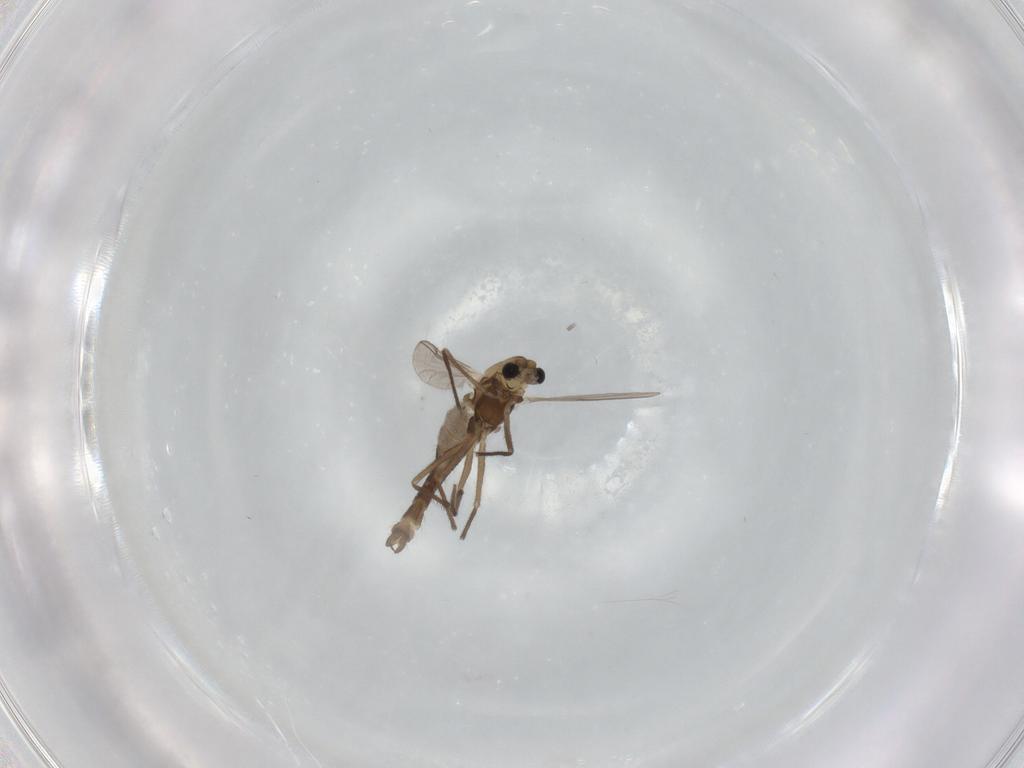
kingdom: Animalia
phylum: Arthropoda
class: Insecta
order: Diptera
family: Chironomidae
